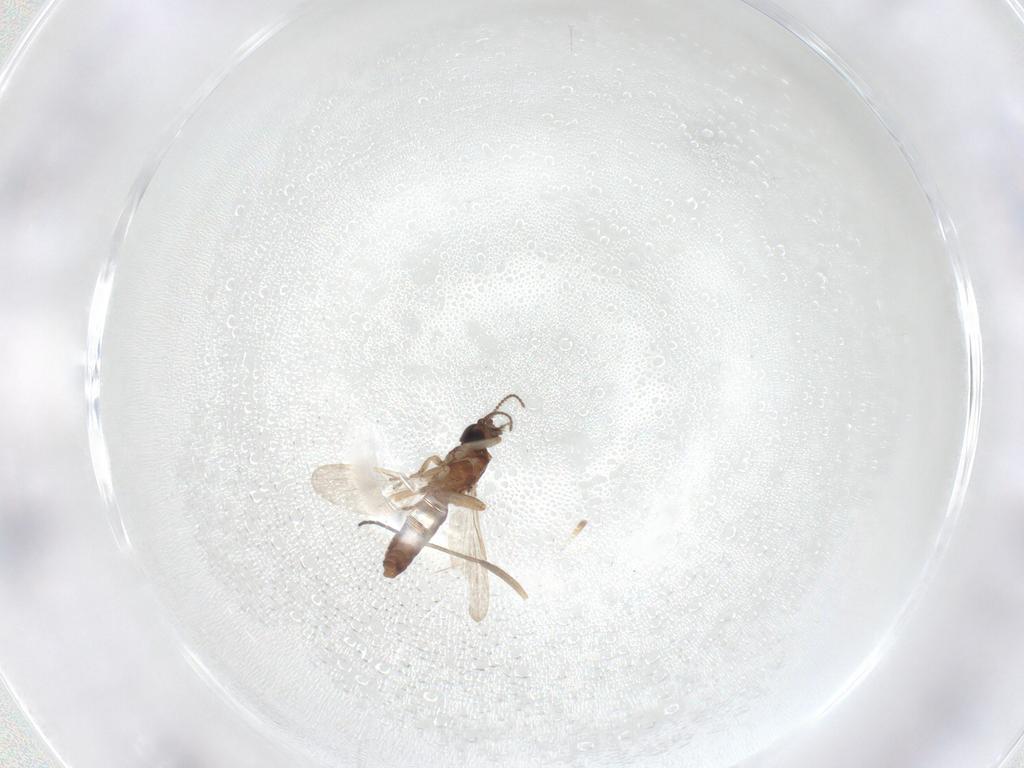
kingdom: Animalia
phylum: Arthropoda
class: Insecta
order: Diptera
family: Ceratopogonidae
